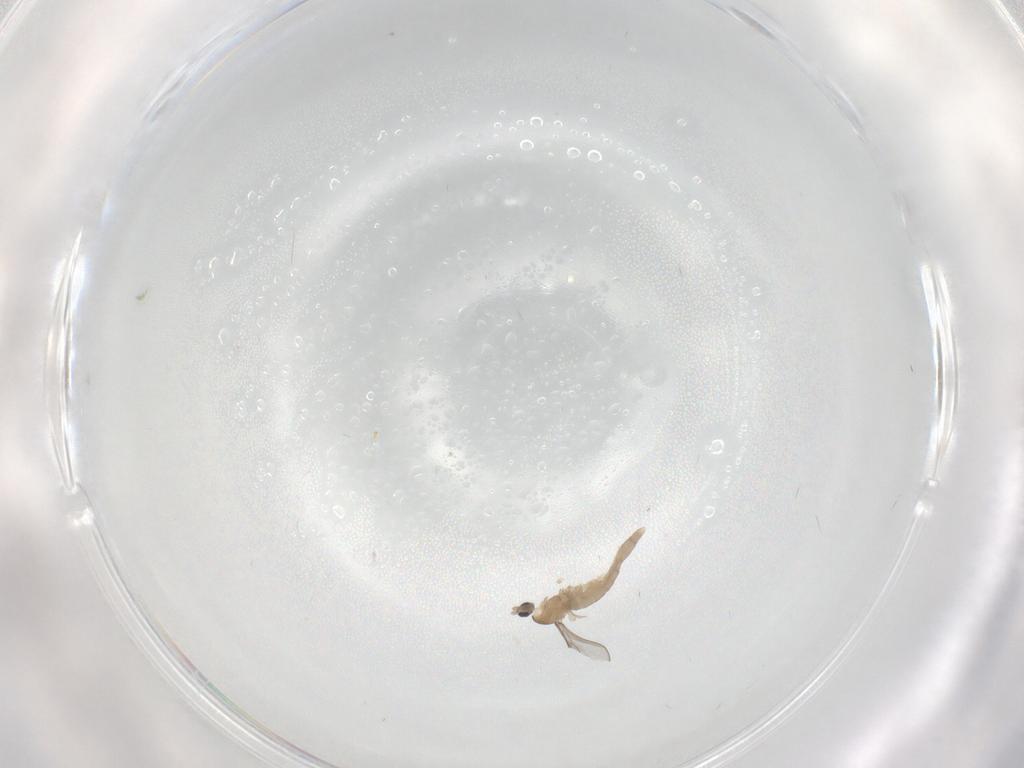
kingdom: Animalia
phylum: Arthropoda
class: Insecta
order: Diptera
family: Cecidomyiidae
